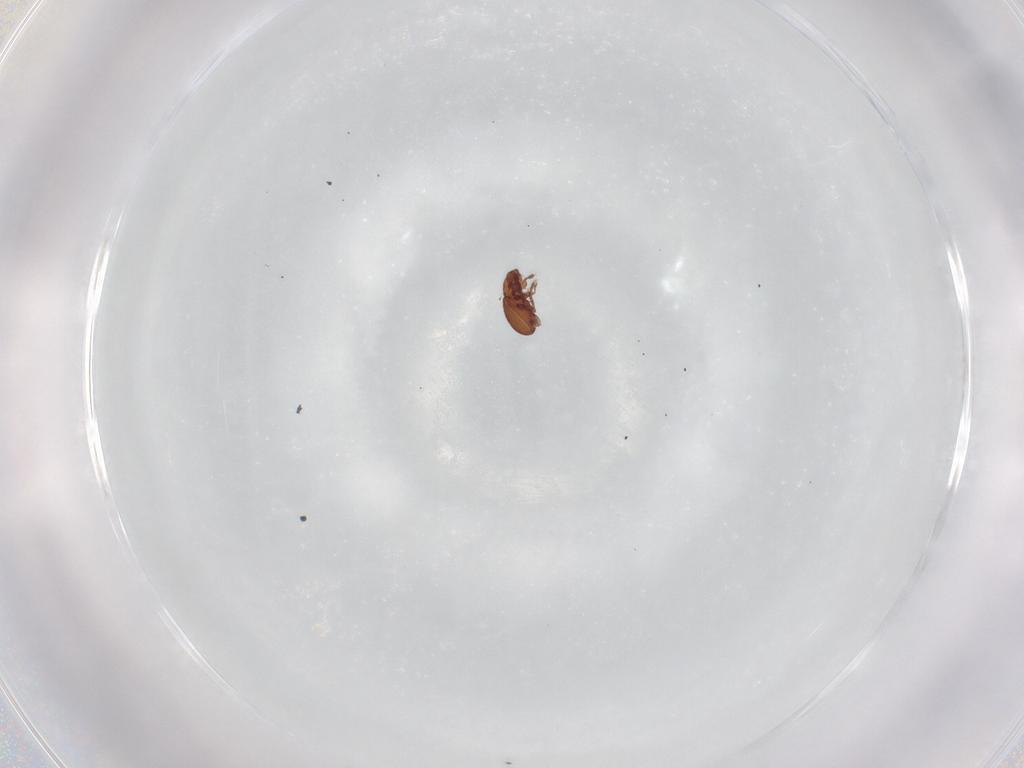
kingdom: Animalia
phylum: Arthropoda
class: Arachnida
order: Sarcoptiformes
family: Eremaeidae
